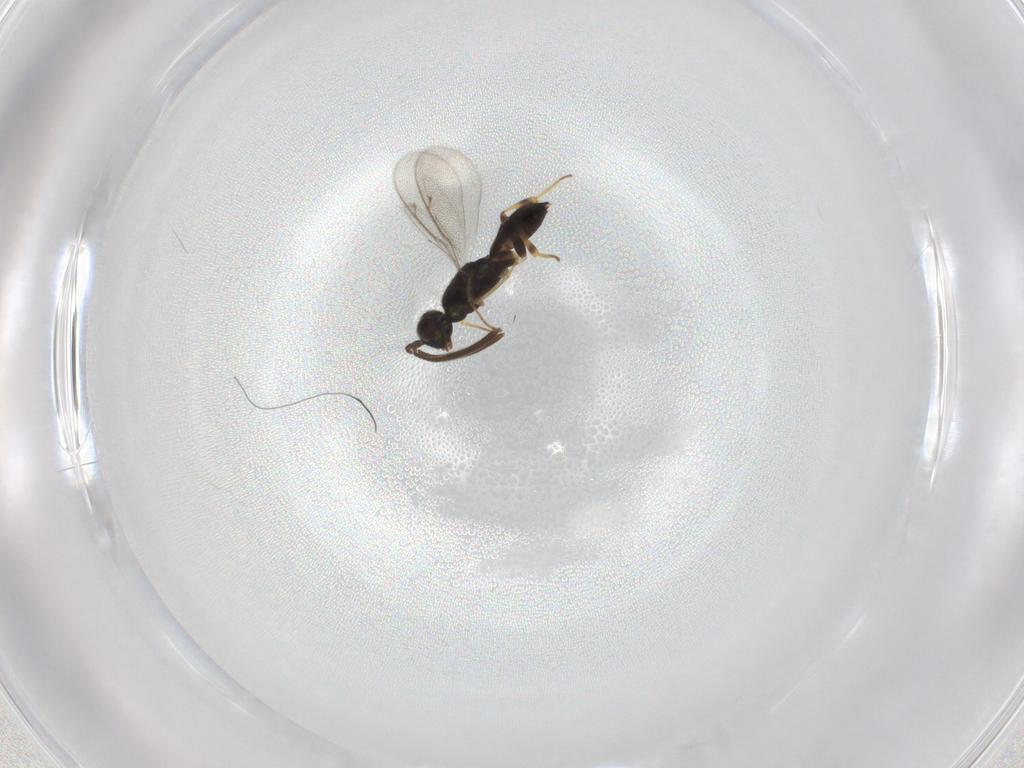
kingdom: Animalia
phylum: Arthropoda
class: Insecta
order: Hymenoptera
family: Eupelmidae
